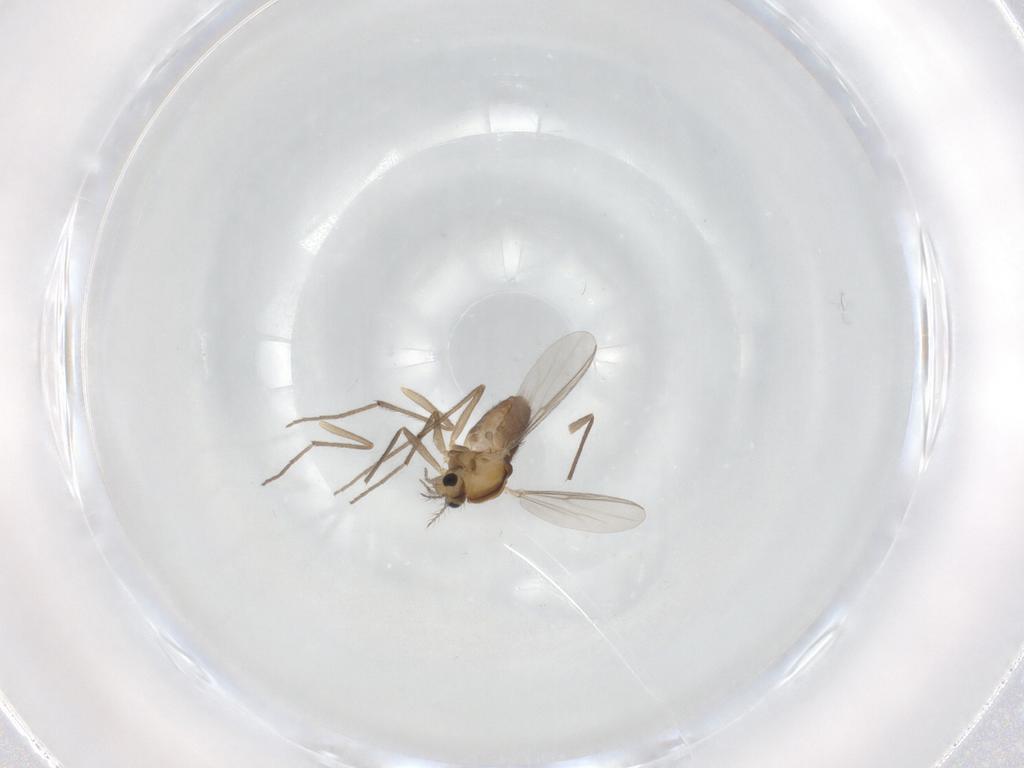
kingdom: Animalia
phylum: Arthropoda
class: Insecta
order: Diptera
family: Chironomidae
